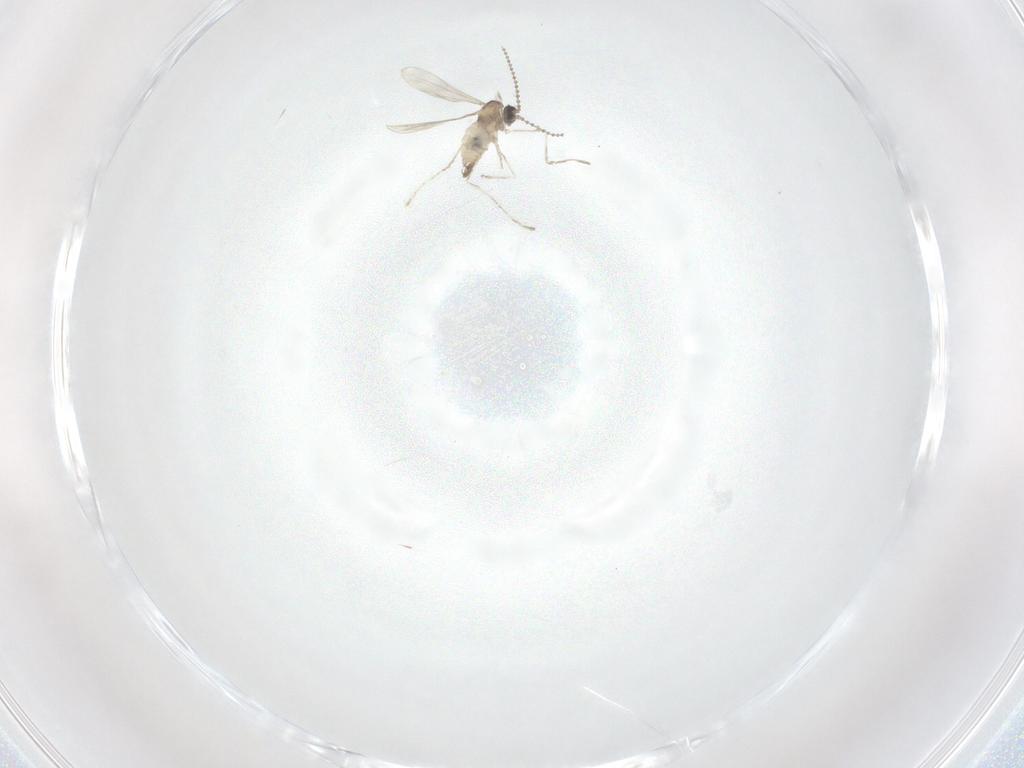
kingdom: Animalia
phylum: Arthropoda
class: Insecta
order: Diptera
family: Cecidomyiidae
